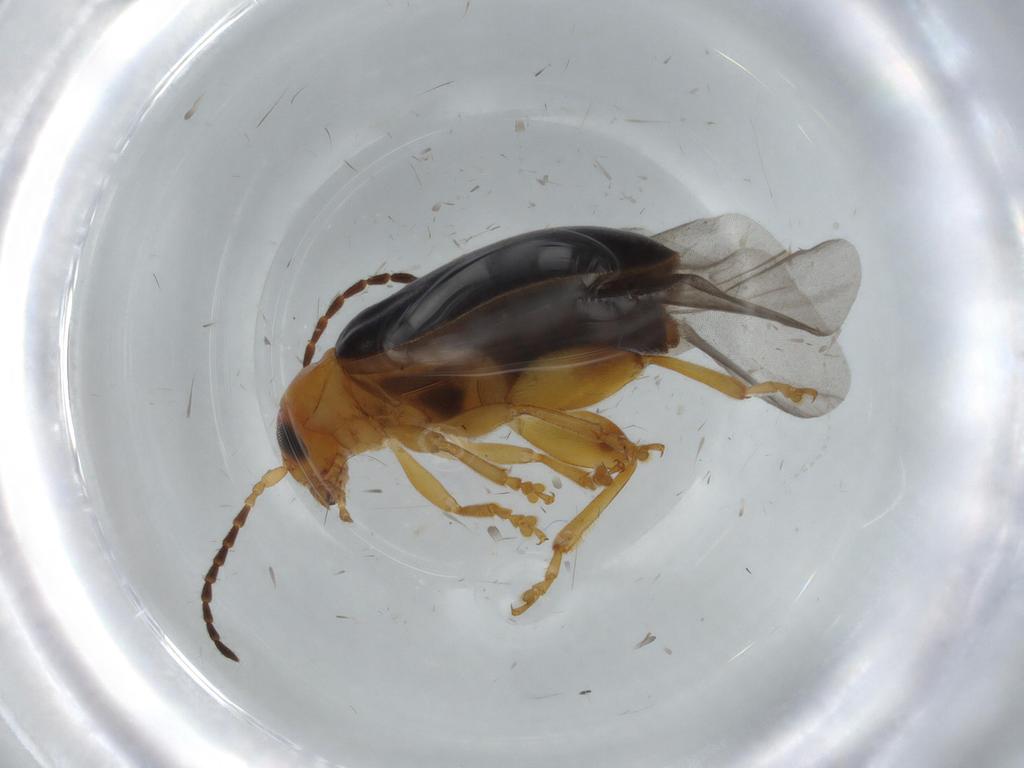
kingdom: Animalia
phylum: Arthropoda
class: Insecta
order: Coleoptera
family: Chrysomelidae
